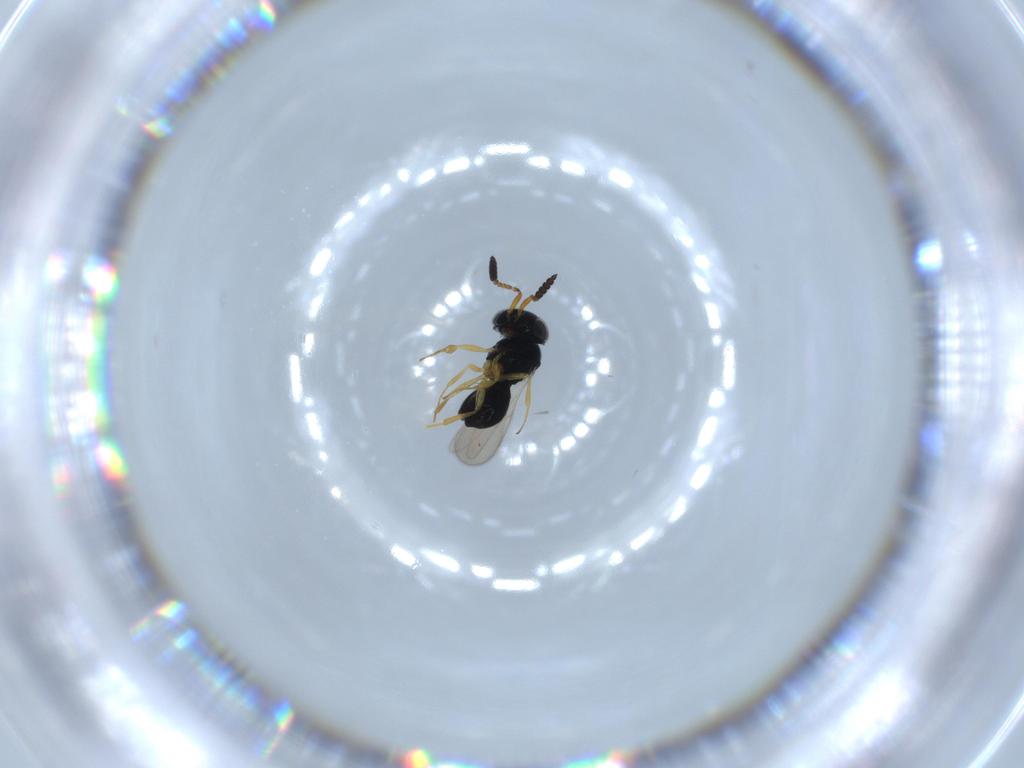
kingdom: Animalia
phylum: Arthropoda
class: Insecta
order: Hymenoptera
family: Scelionidae
